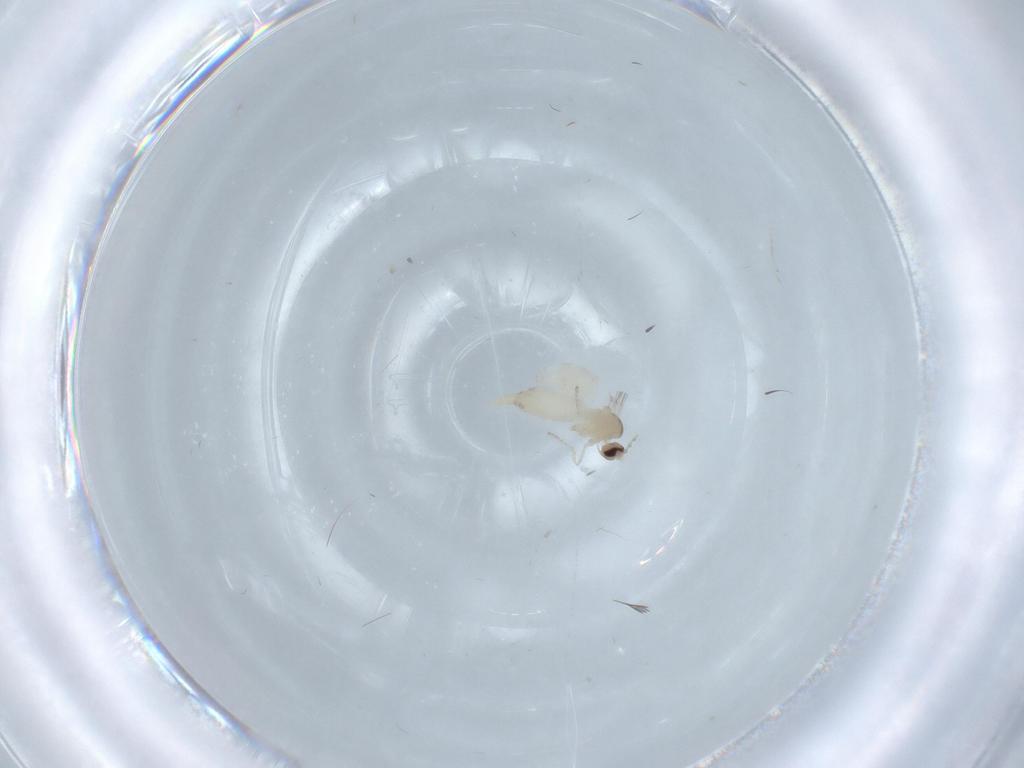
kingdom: Animalia
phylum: Arthropoda
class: Insecta
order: Diptera
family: Cecidomyiidae
